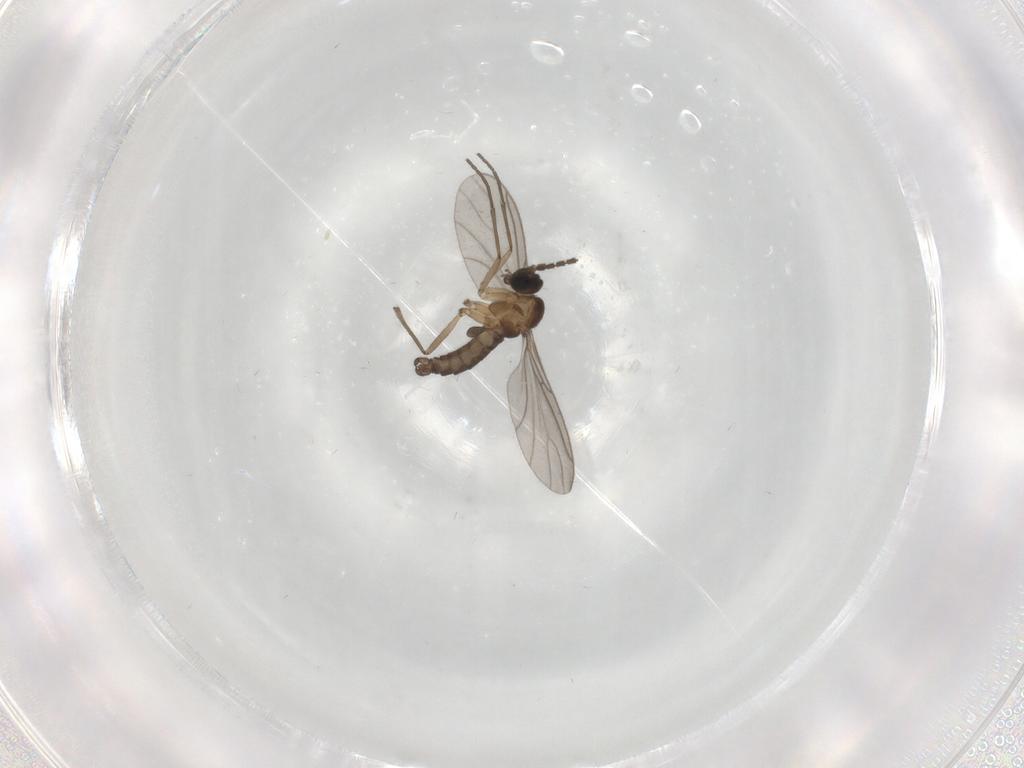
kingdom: Animalia
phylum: Arthropoda
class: Insecta
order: Diptera
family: Sciaridae
